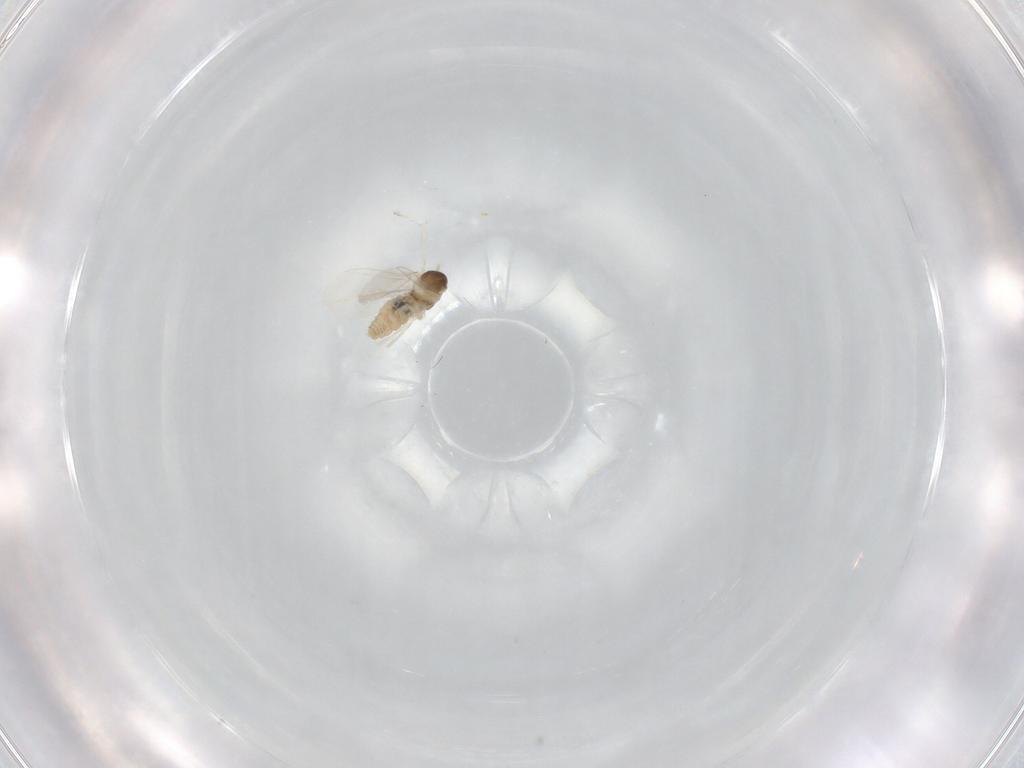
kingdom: Animalia
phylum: Arthropoda
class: Insecta
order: Diptera
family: Cecidomyiidae
